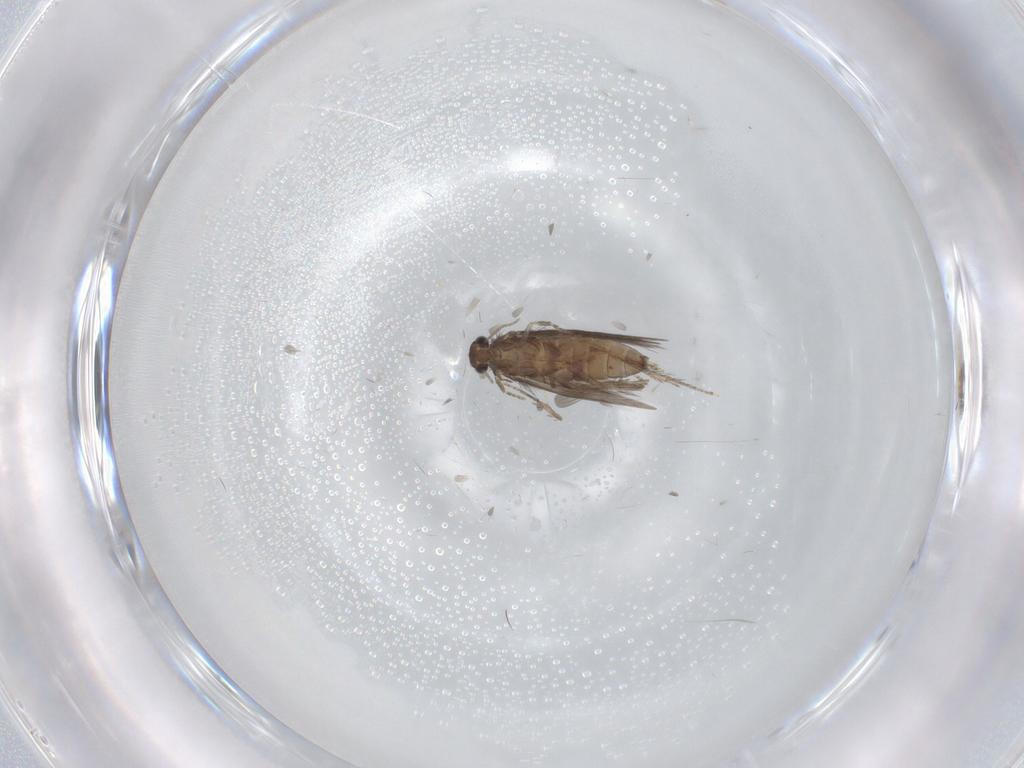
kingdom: Animalia
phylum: Arthropoda
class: Insecta
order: Trichoptera
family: Hydroptilidae
